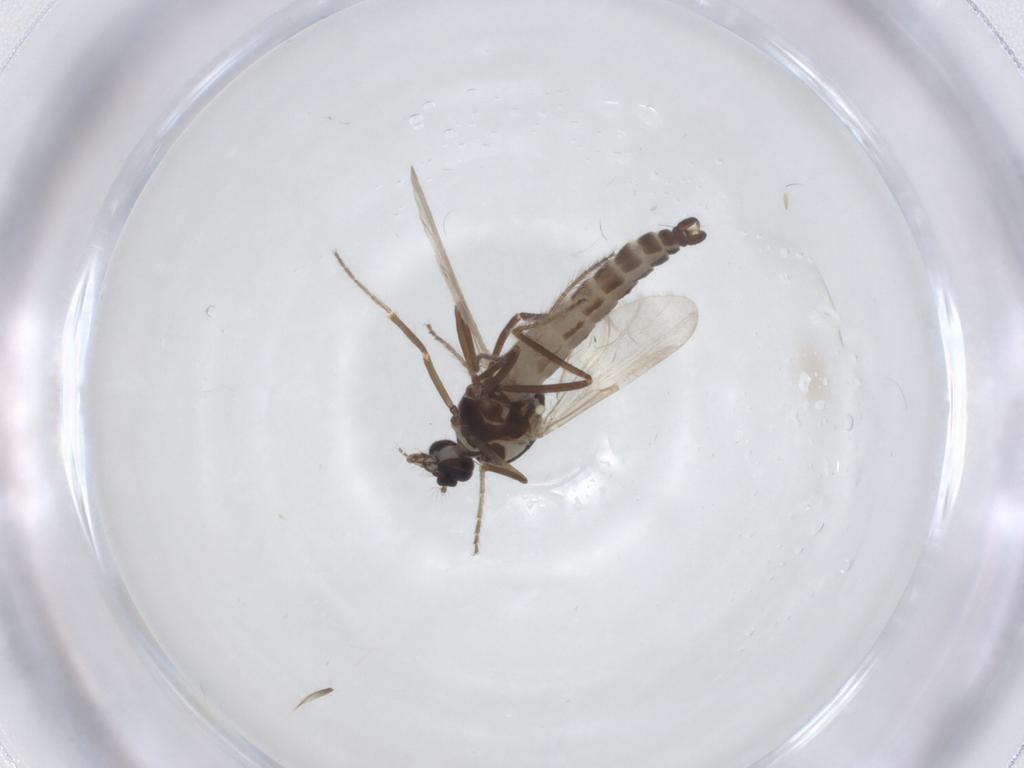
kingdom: Animalia
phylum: Arthropoda
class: Insecta
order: Diptera
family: Ceratopogonidae
